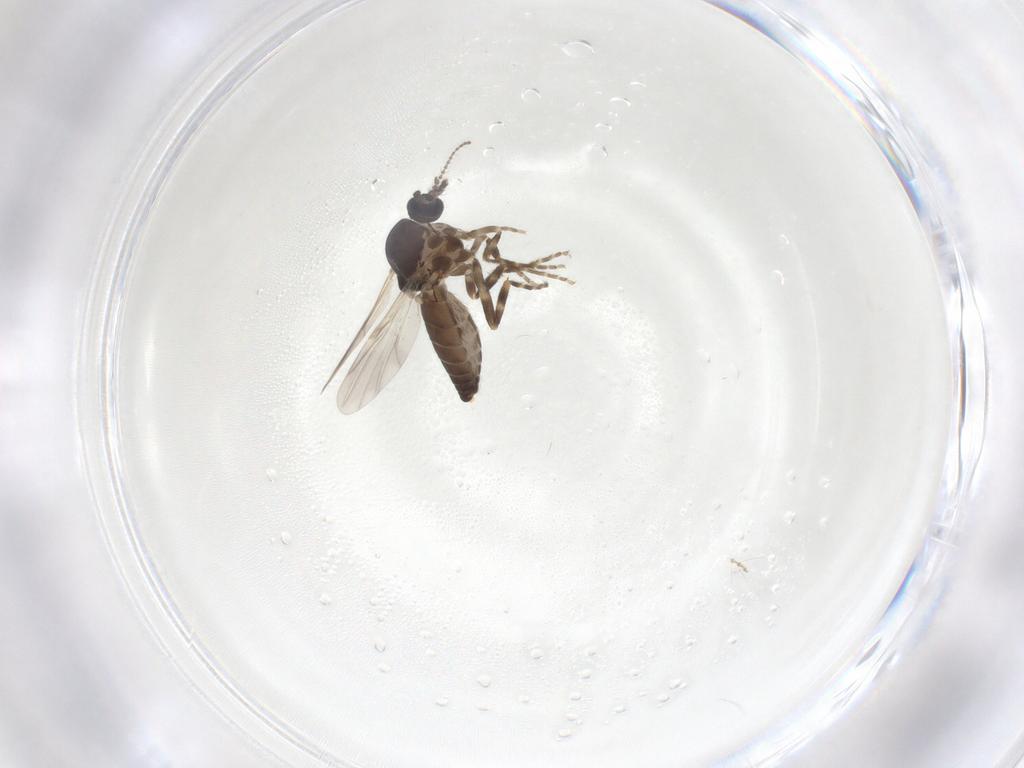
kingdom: Animalia
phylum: Arthropoda
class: Insecta
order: Diptera
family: Ceratopogonidae
